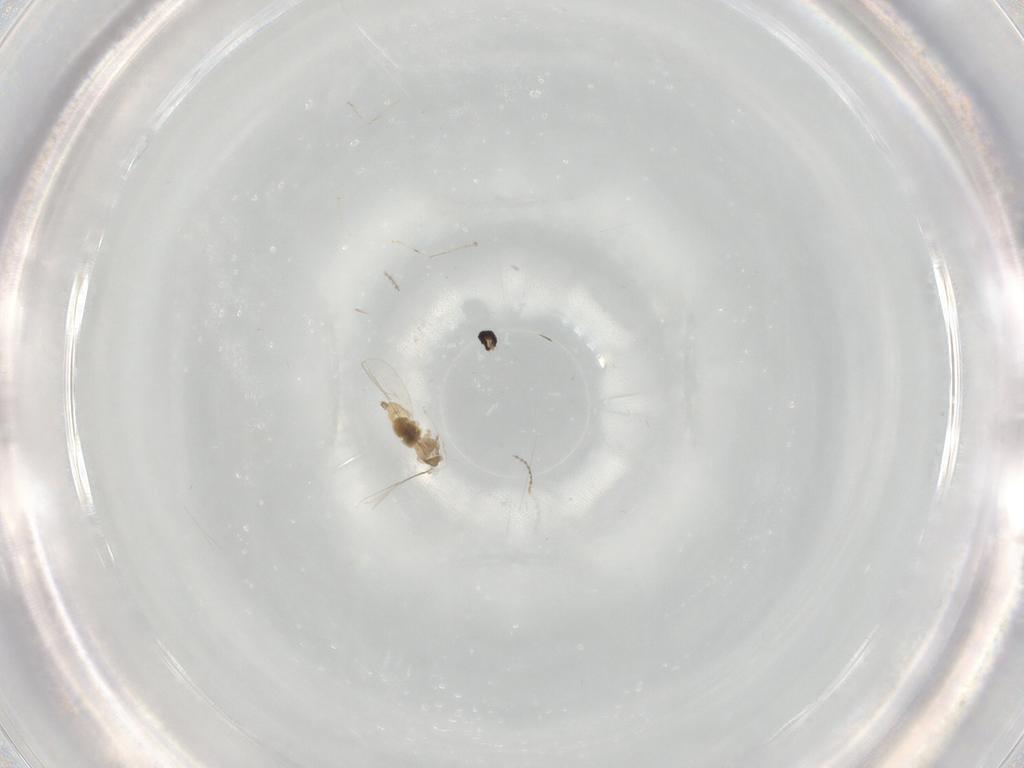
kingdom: Animalia
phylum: Arthropoda
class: Insecta
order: Diptera
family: Cecidomyiidae
